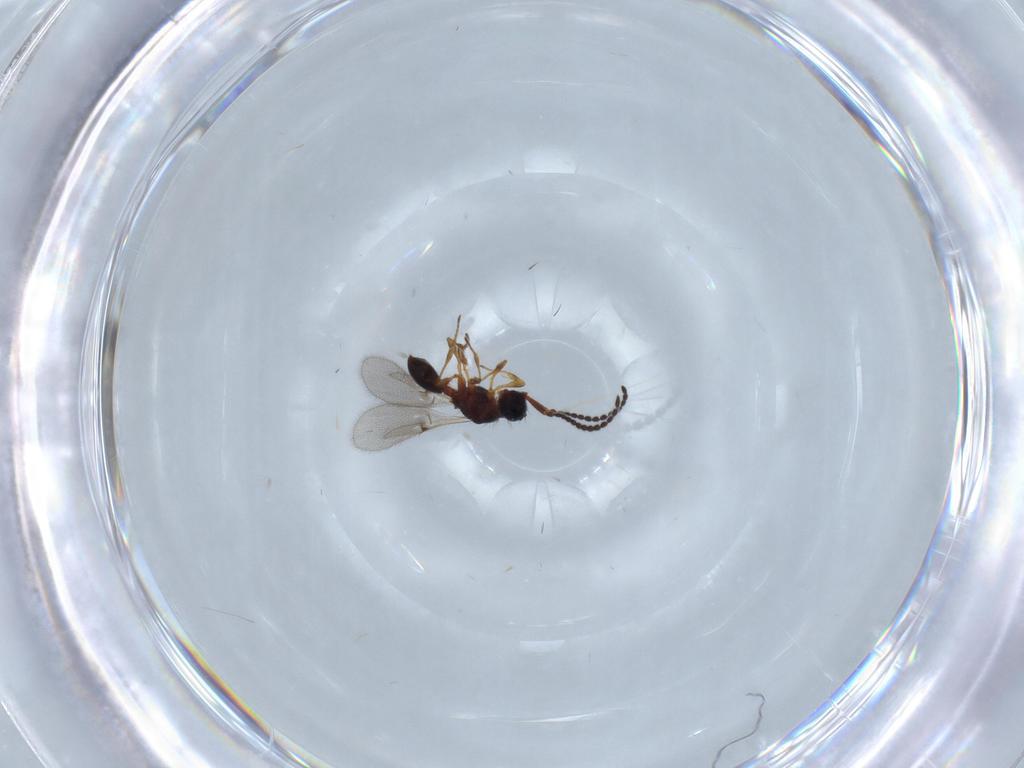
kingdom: Animalia
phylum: Arthropoda
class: Insecta
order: Hymenoptera
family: Diapriidae
